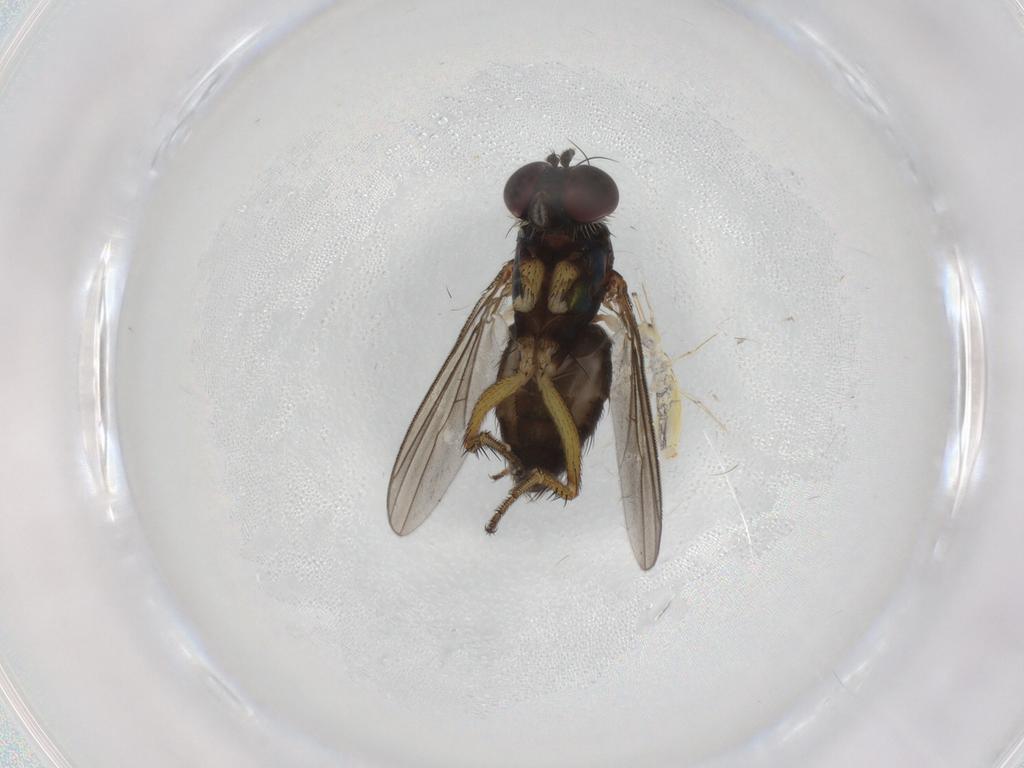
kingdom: Animalia
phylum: Arthropoda
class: Insecta
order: Diptera
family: Dolichopodidae
